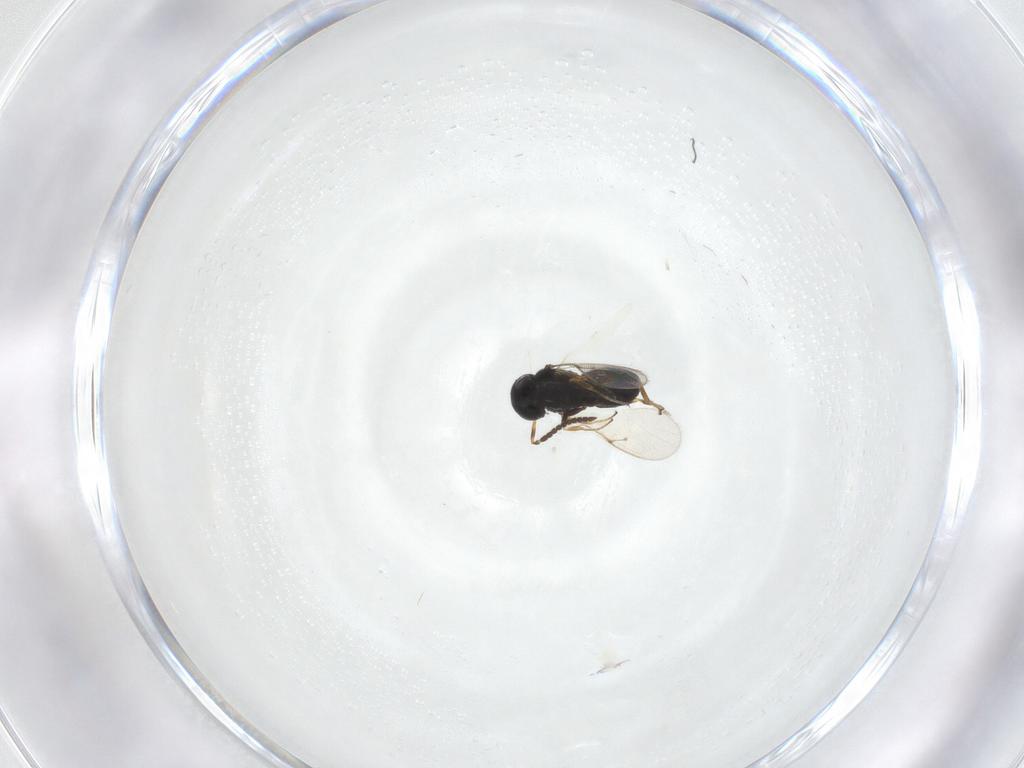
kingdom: Animalia
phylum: Arthropoda
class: Insecta
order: Hymenoptera
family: Scelionidae
